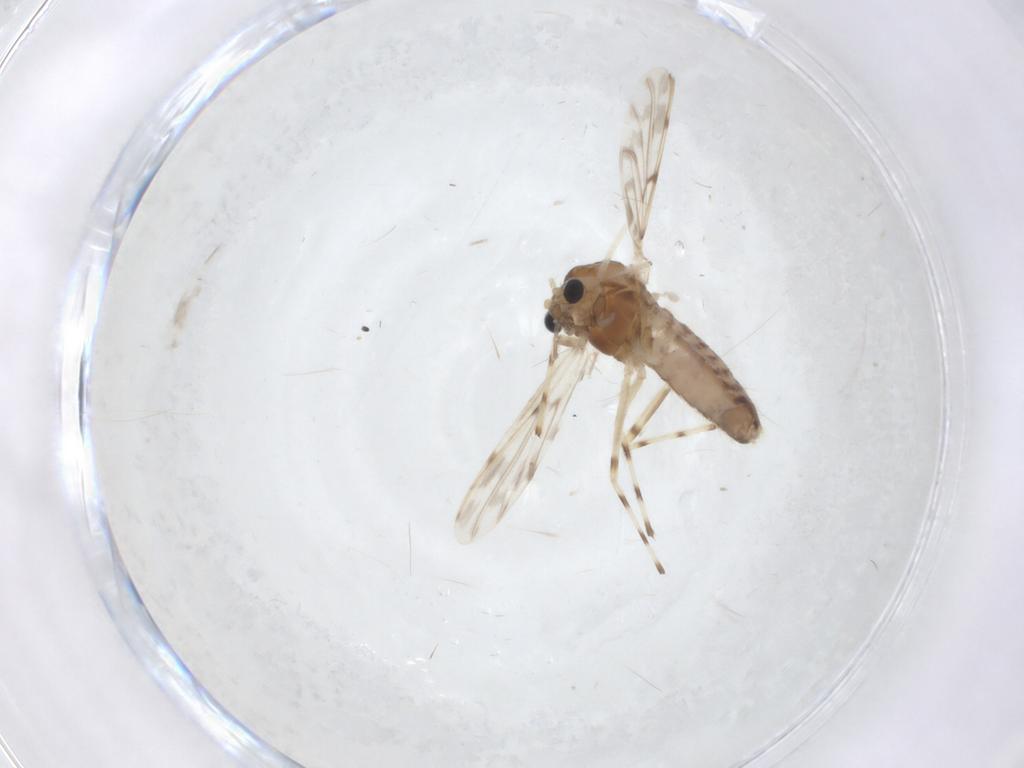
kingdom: Animalia
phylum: Arthropoda
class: Insecta
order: Diptera
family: Chironomidae
